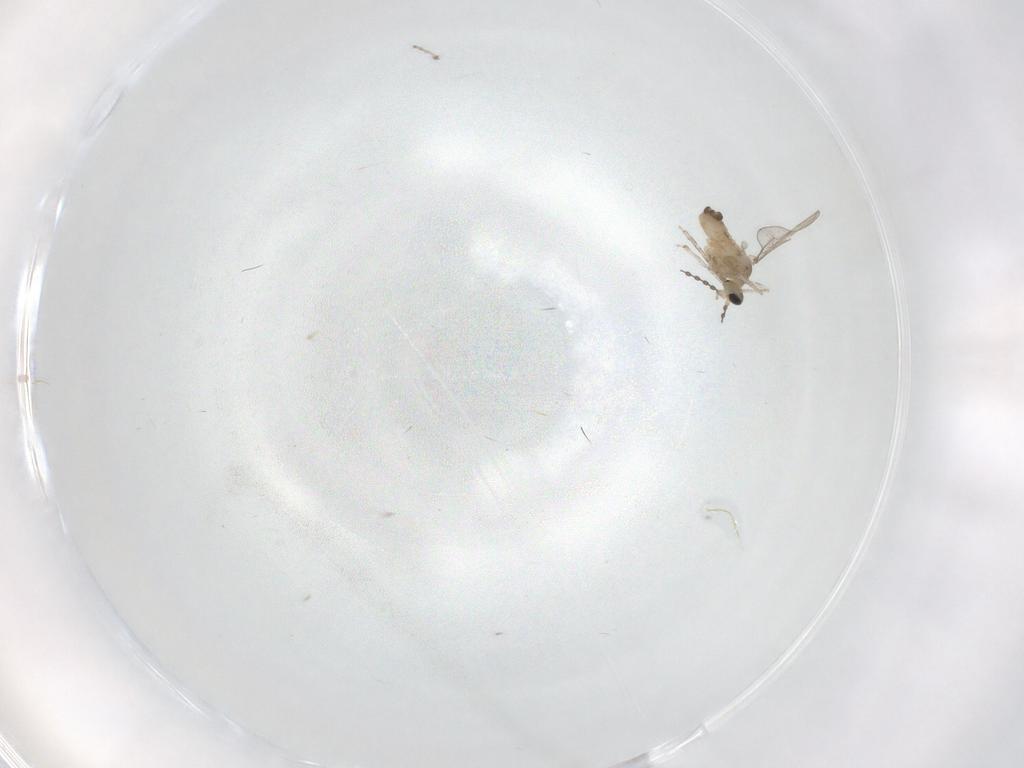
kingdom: Animalia
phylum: Arthropoda
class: Insecta
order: Diptera
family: Cecidomyiidae
